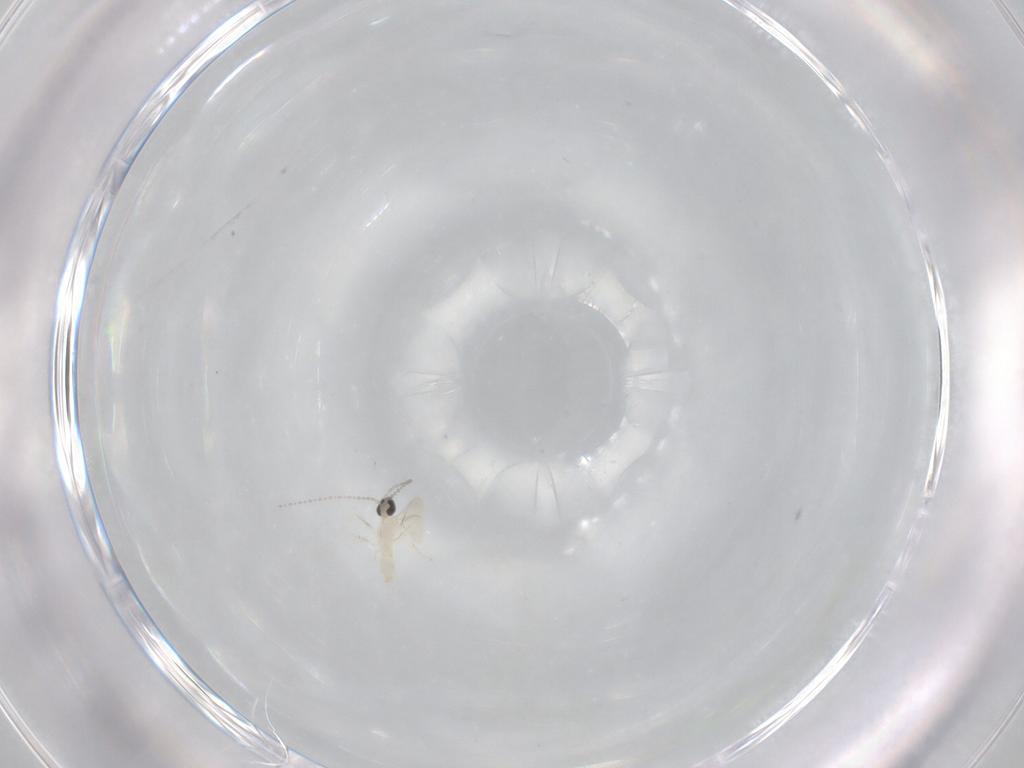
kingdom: Animalia
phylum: Arthropoda
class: Insecta
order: Diptera
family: Cecidomyiidae
